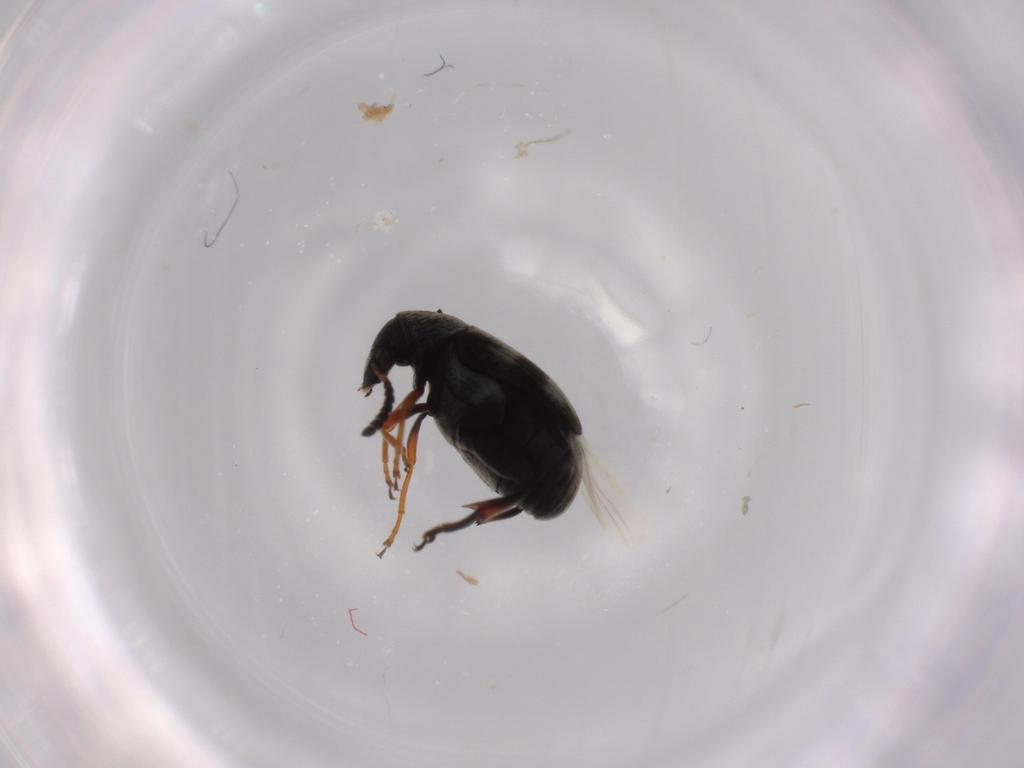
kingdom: Animalia
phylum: Arthropoda
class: Insecta
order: Coleoptera
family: Chrysomelidae
